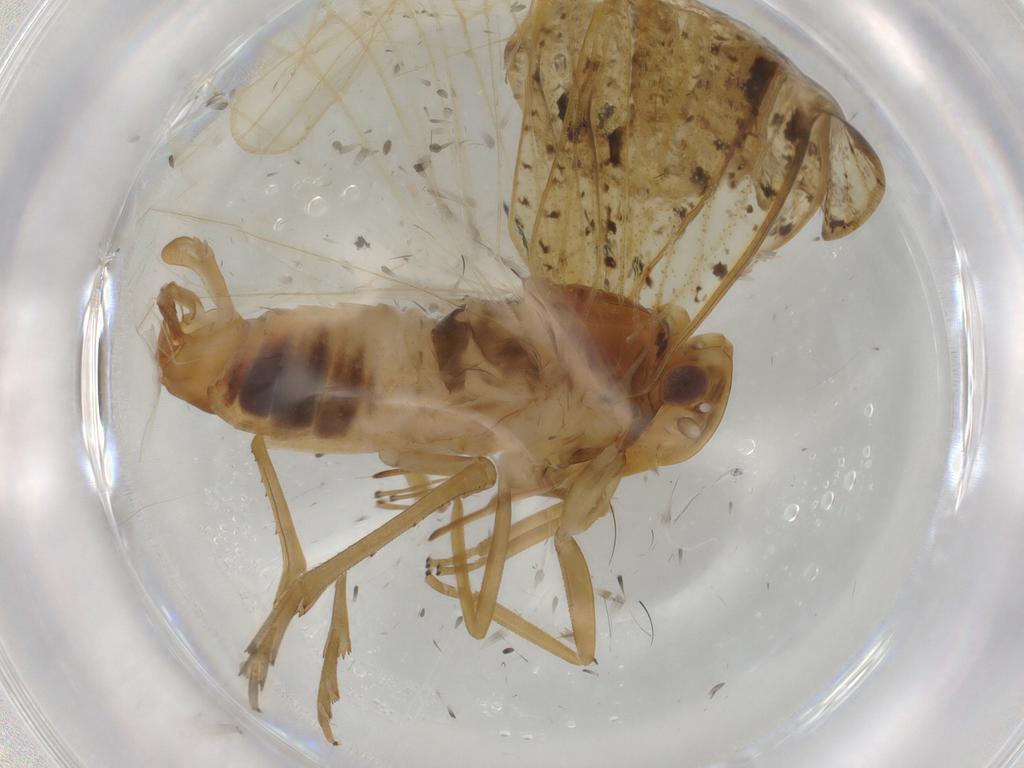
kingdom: Animalia
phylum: Arthropoda
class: Insecta
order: Hemiptera
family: Cixiidae
